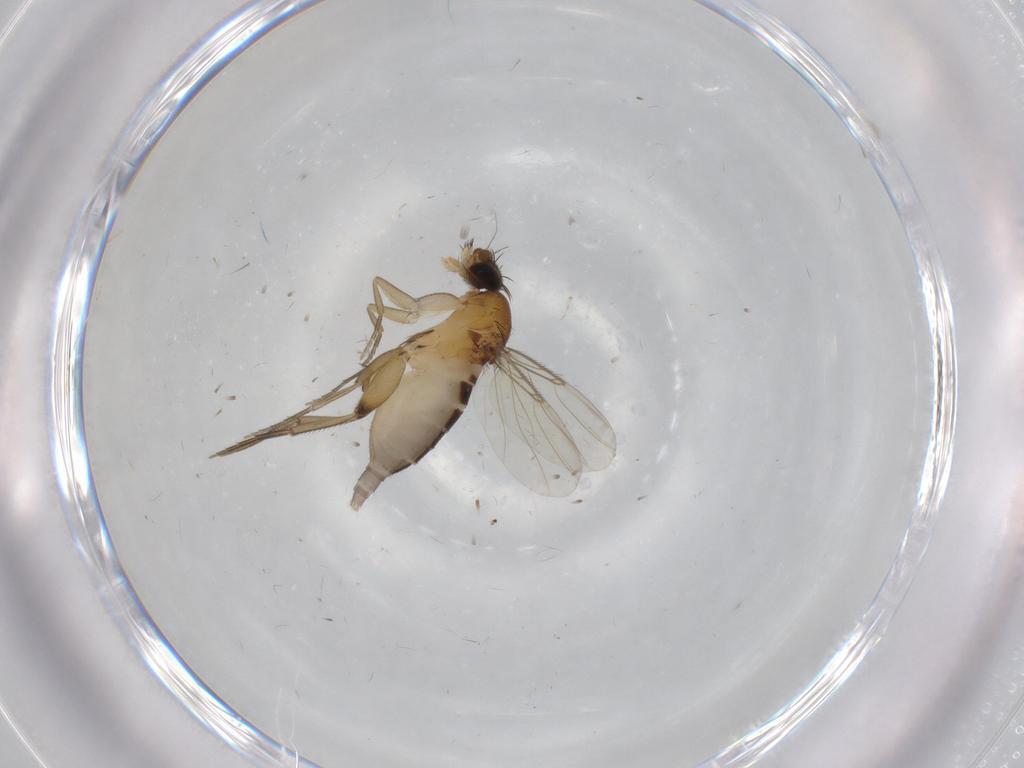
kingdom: Animalia
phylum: Arthropoda
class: Insecta
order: Diptera
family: Phoridae
